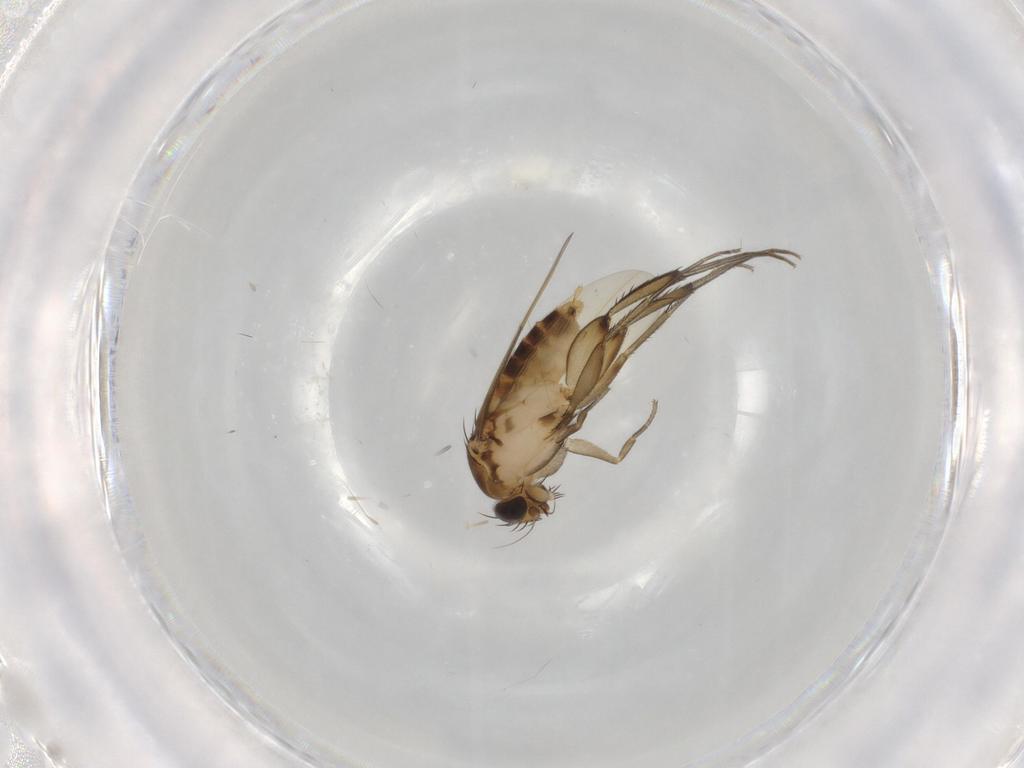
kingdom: Animalia
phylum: Arthropoda
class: Insecta
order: Diptera
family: Phoridae
